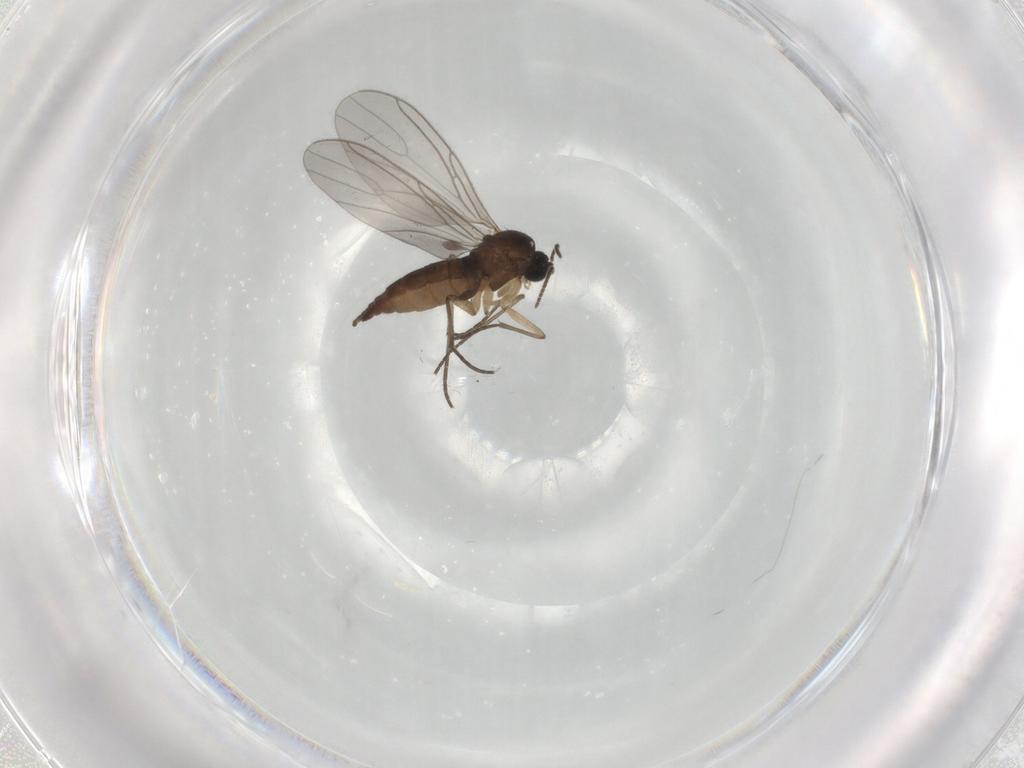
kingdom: Animalia
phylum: Arthropoda
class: Insecta
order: Diptera
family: Sciaridae
